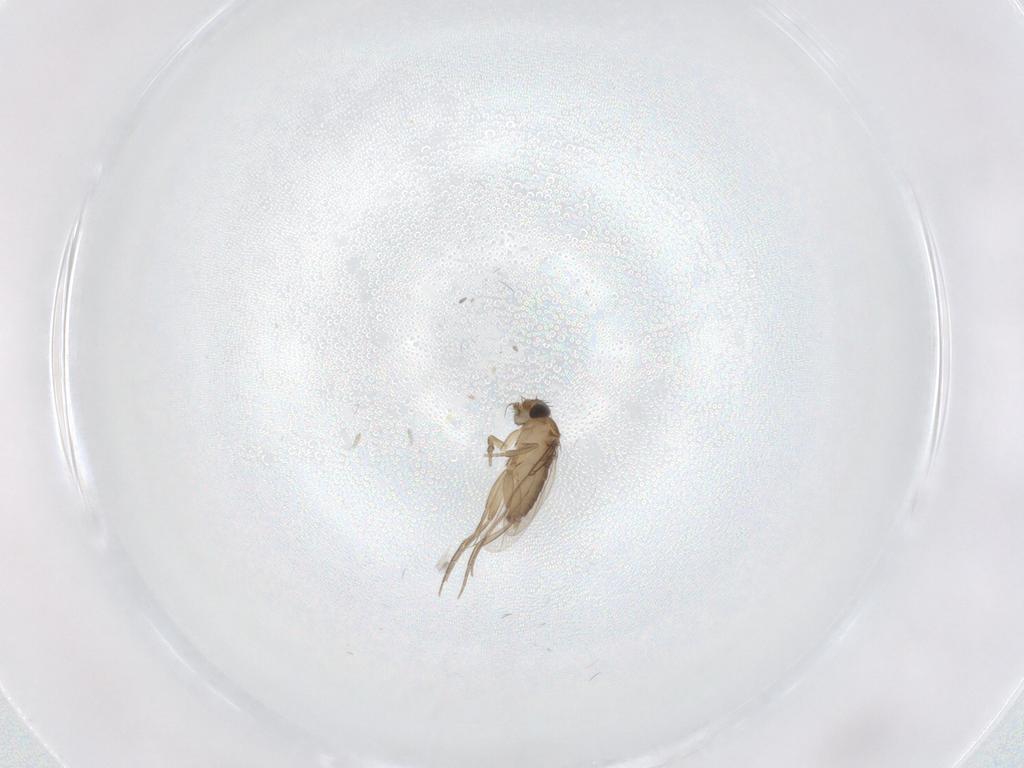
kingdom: Animalia
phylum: Arthropoda
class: Insecta
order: Diptera
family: Phoridae
